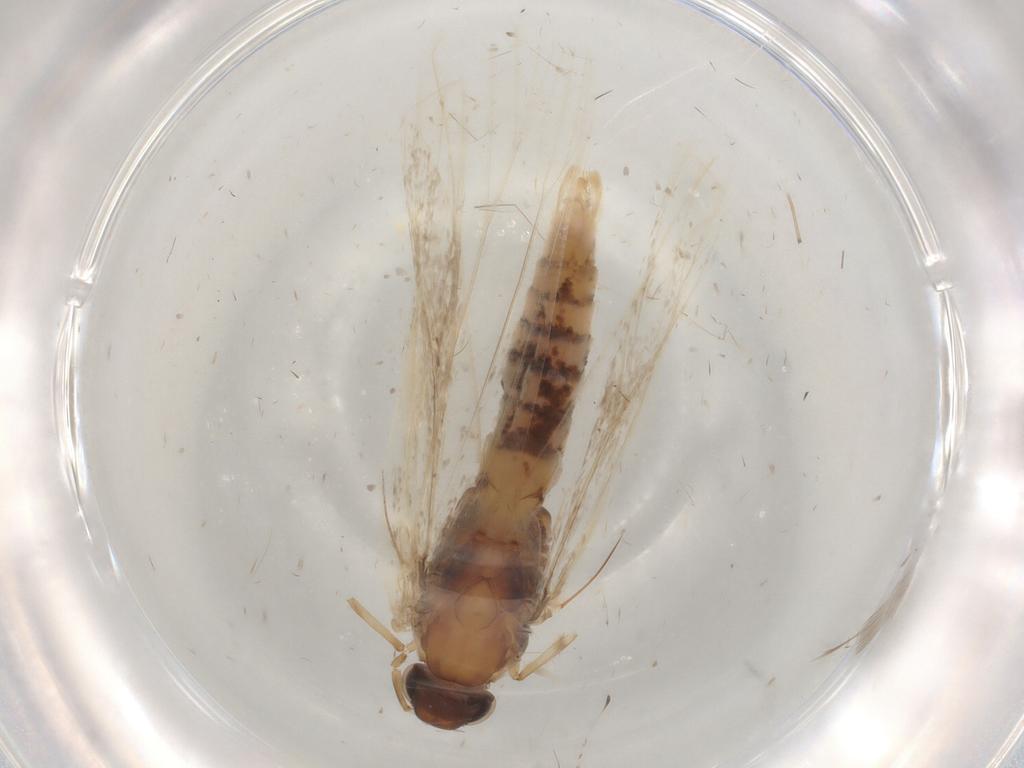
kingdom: Animalia
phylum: Arthropoda
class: Insecta
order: Lepidoptera
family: Gelechiidae
